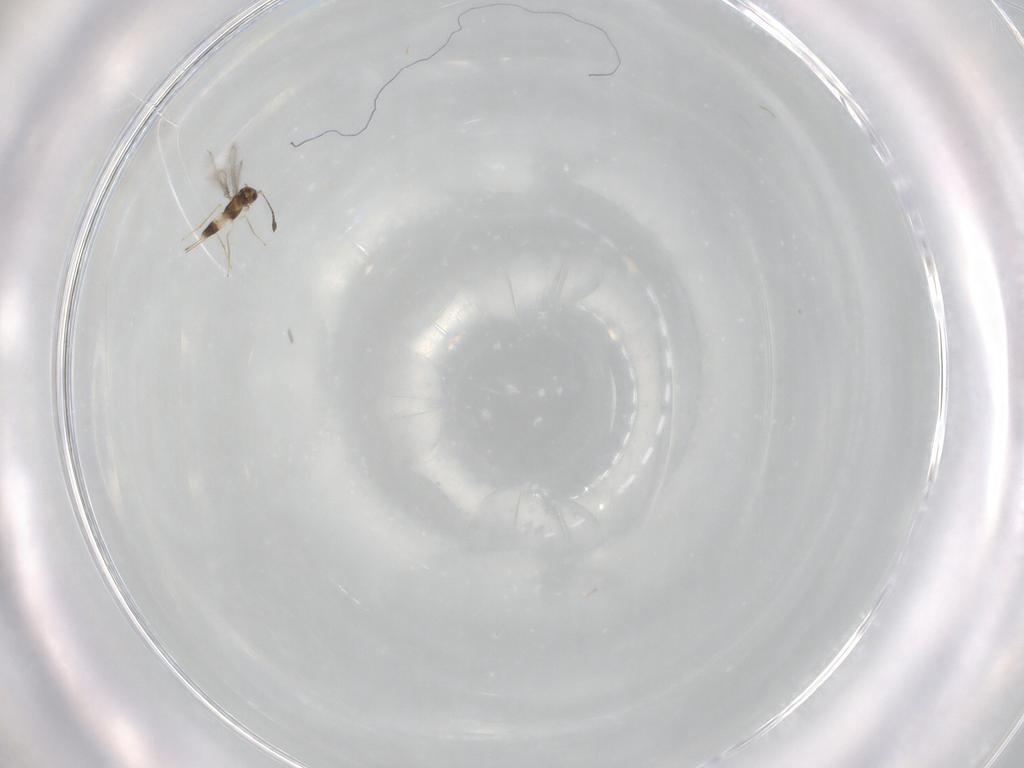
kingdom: Animalia
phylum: Arthropoda
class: Insecta
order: Hymenoptera
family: Mymaridae
